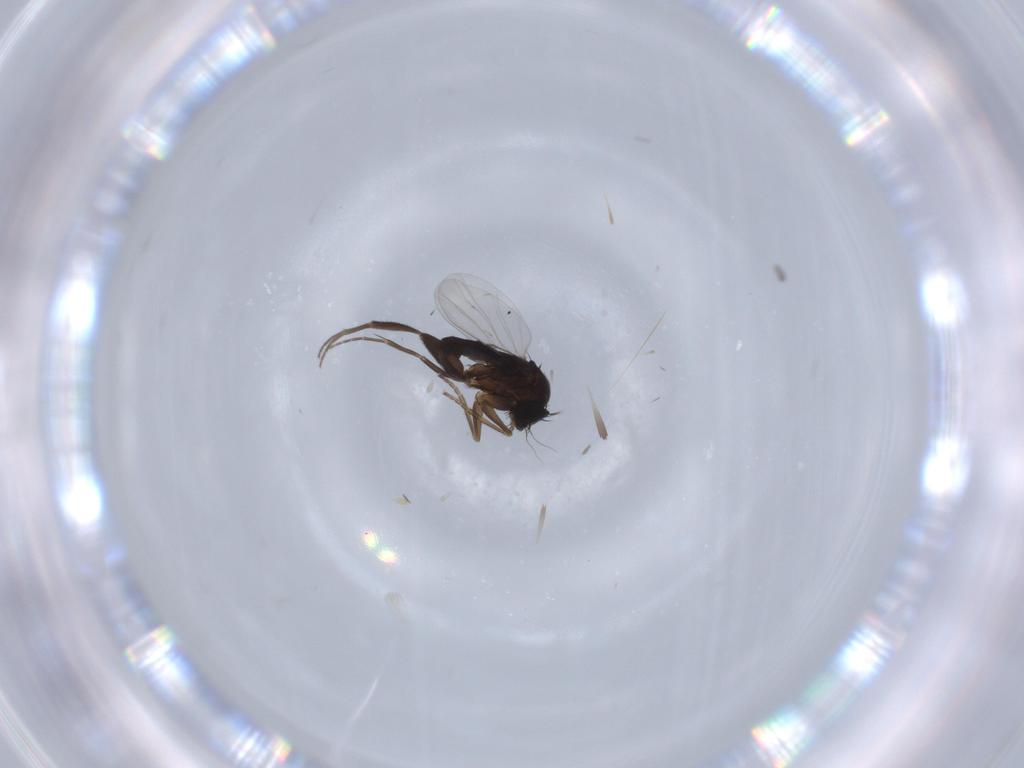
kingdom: Animalia
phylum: Arthropoda
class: Insecta
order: Diptera
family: Phoridae
